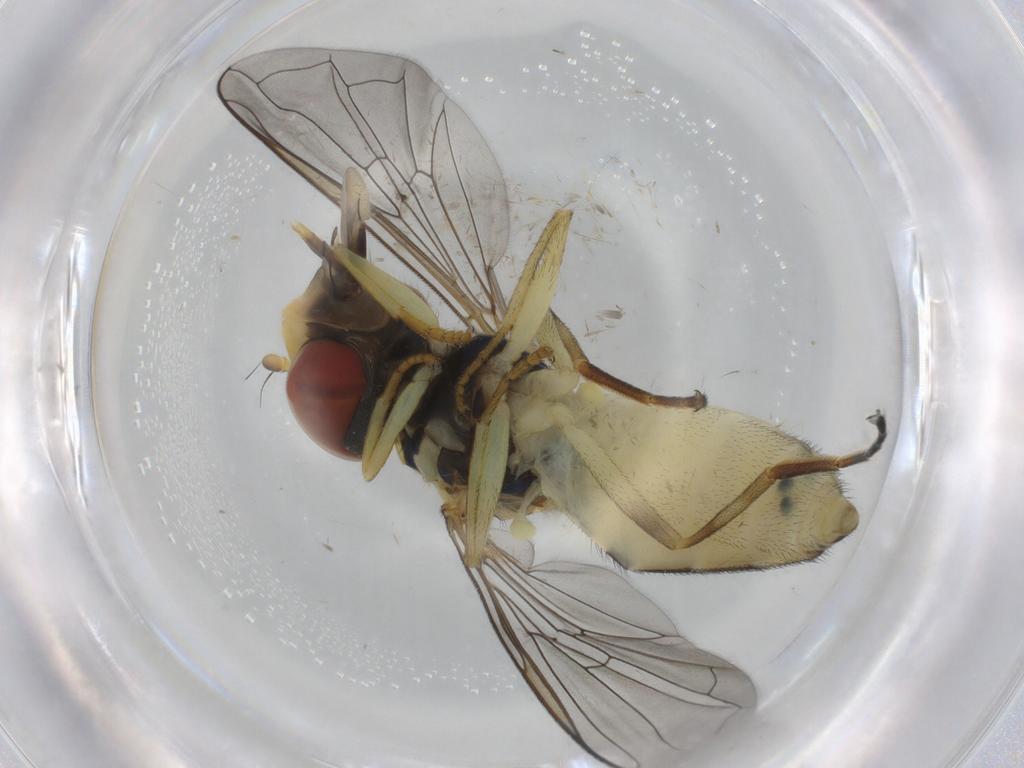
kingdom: Animalia
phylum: Arthropoda
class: Insecta
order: Diptera
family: Syrphidae
